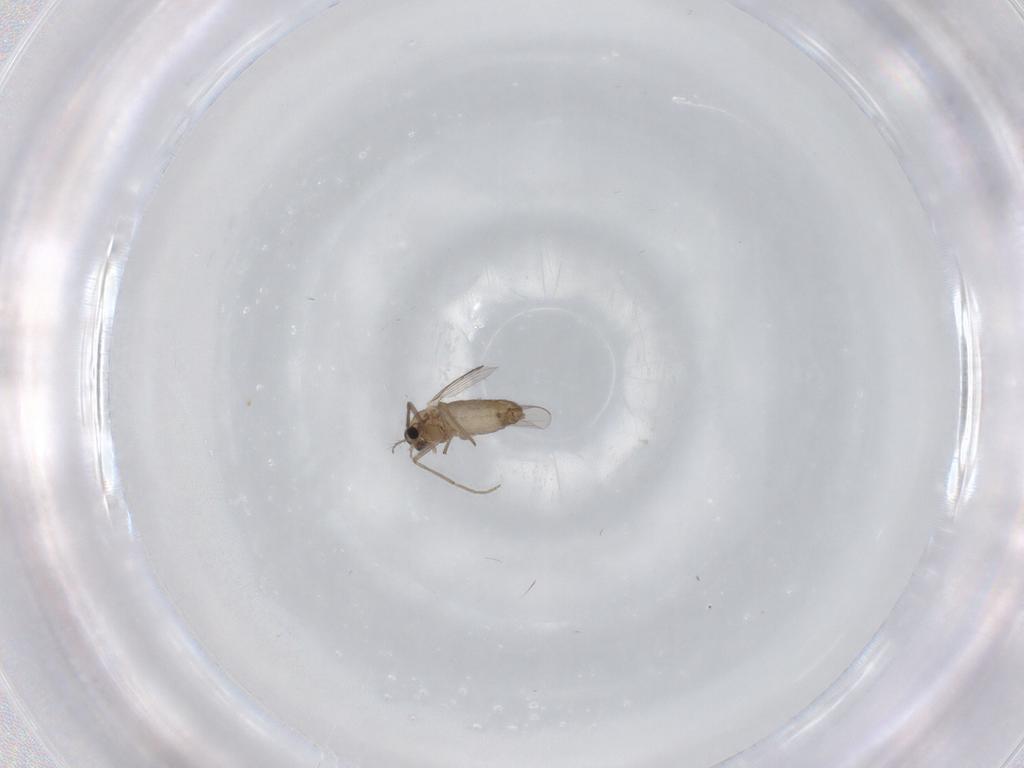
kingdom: Animalia
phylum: Arthropoda
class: Insecta
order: Diptera
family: Chironomidae
